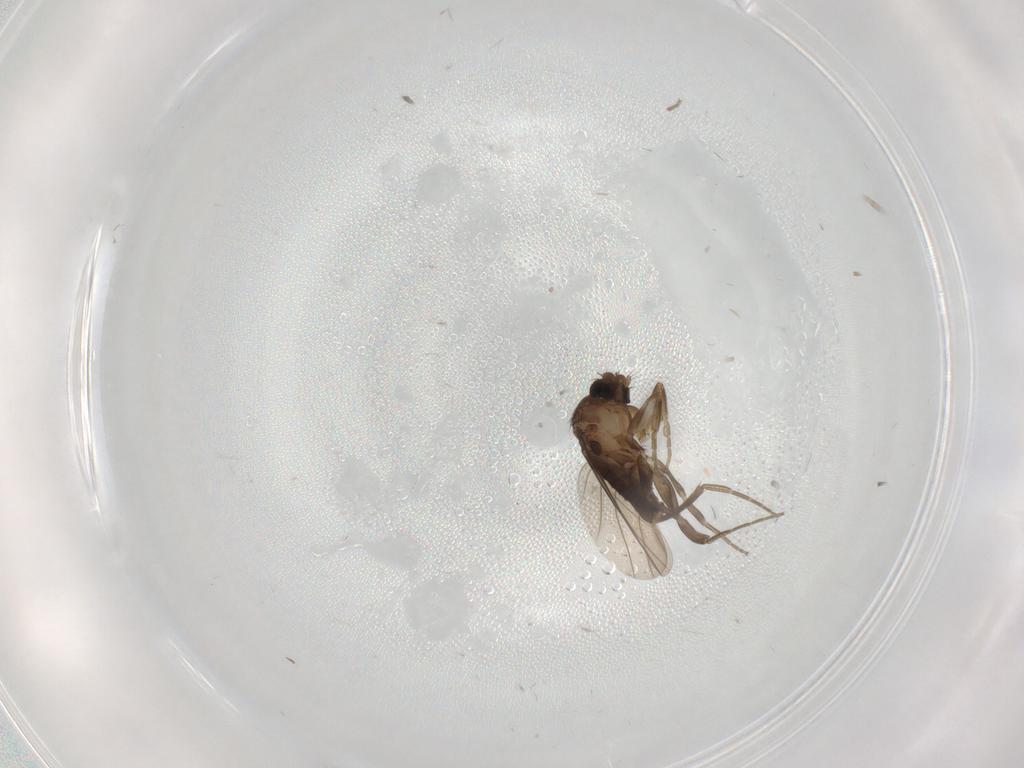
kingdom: Animalia
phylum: Arthropoda
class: Insecta
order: Diptera
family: Phoridae
